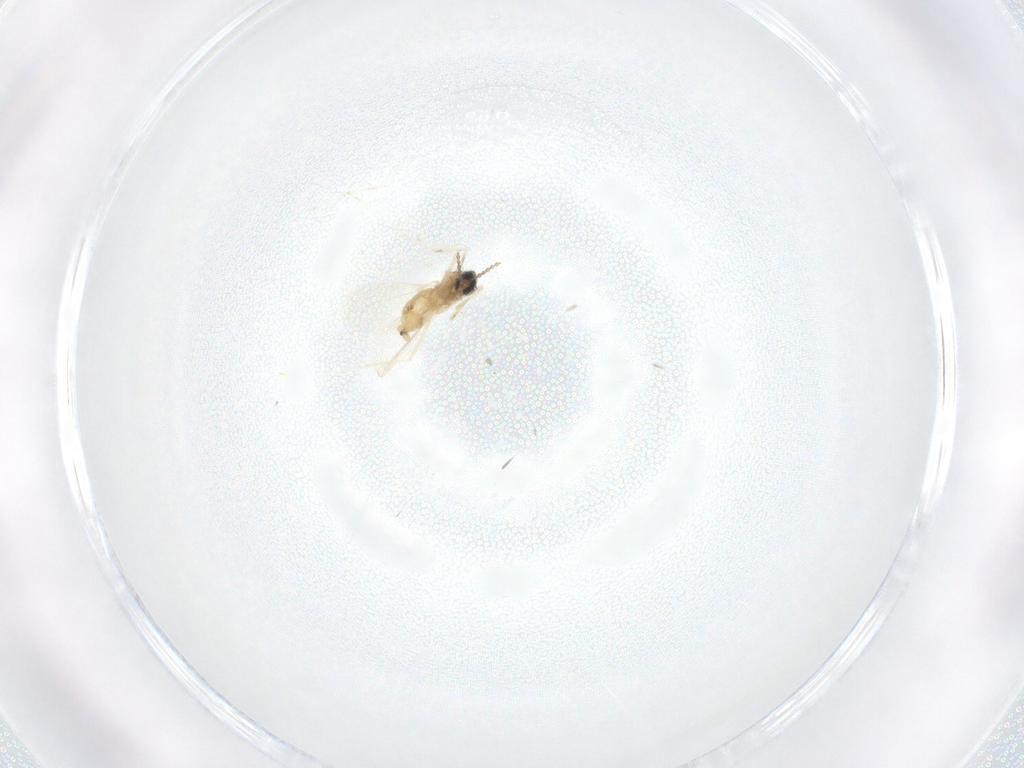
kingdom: Animalia
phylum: Arthropoda
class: Insecta
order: Diptera
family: Cecidomyiidae
